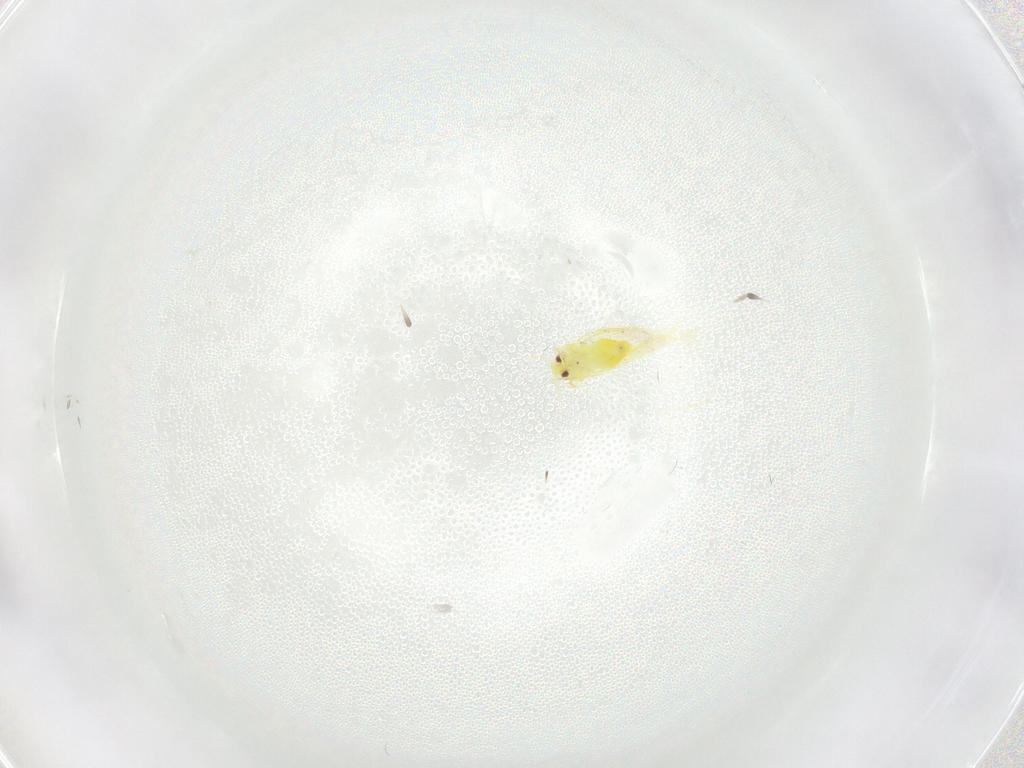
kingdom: Animalia
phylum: Arthropoda
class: Insecta
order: Hemiptera
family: Aleyrodidae
